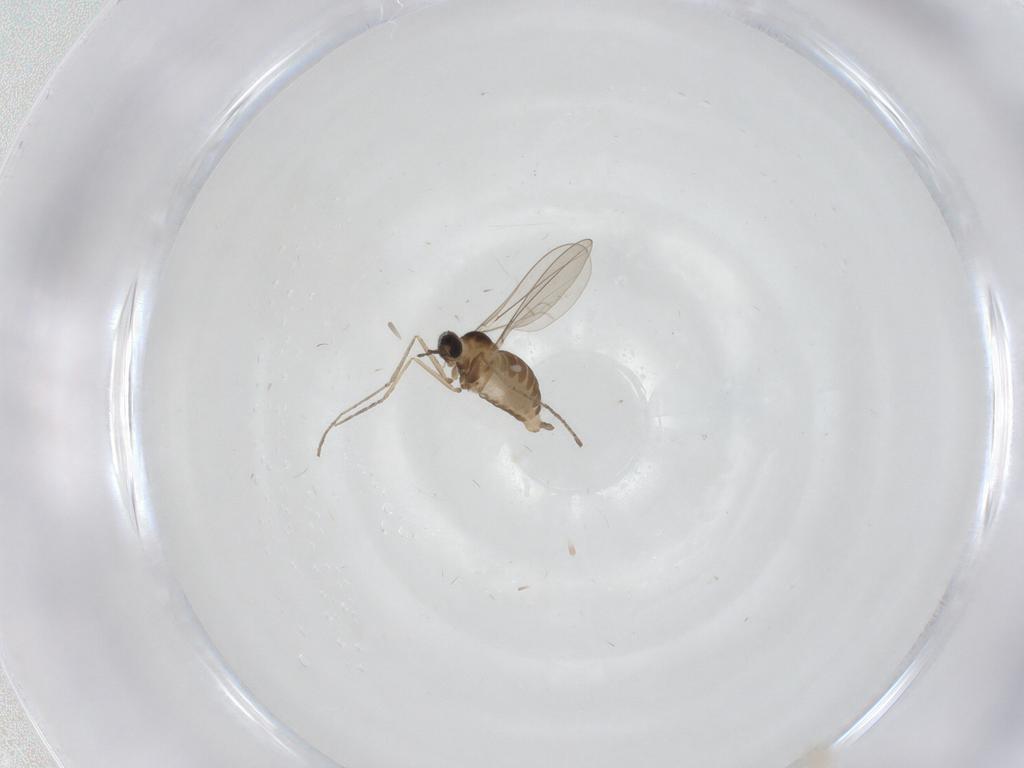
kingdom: Animalia
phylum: Arthropoda
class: Insecta
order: Diptera
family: Cecidomyiidae
